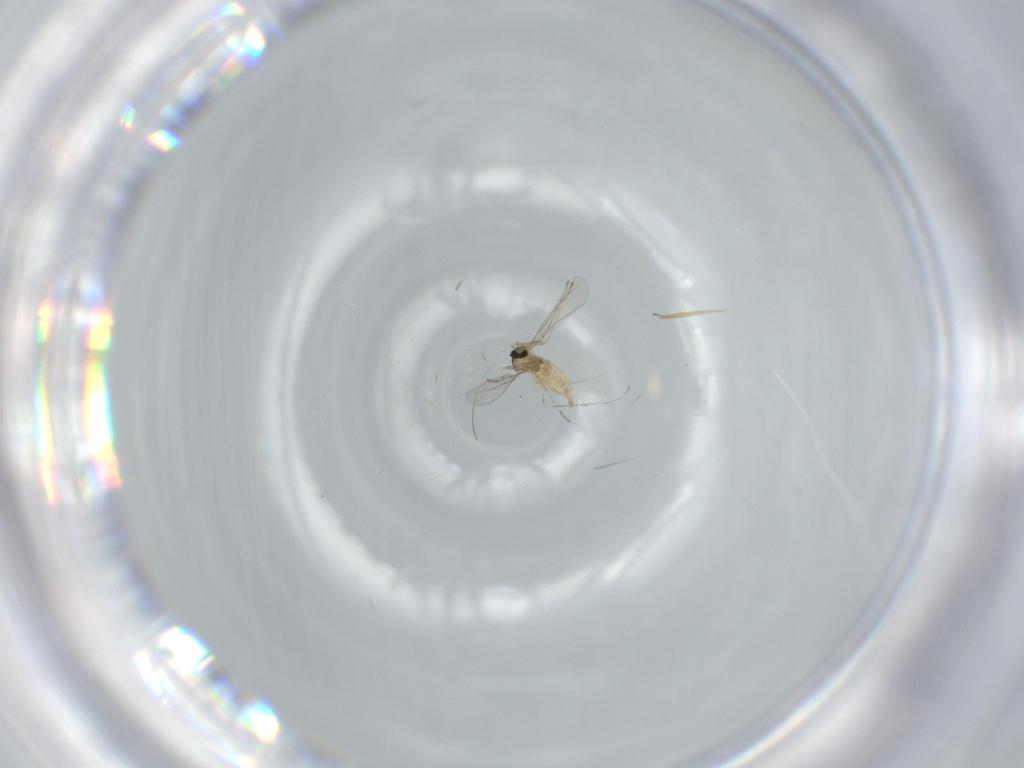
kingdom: Animalia
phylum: Arthropoda
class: Insecta
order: Diptera
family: Cecidomyiidae
